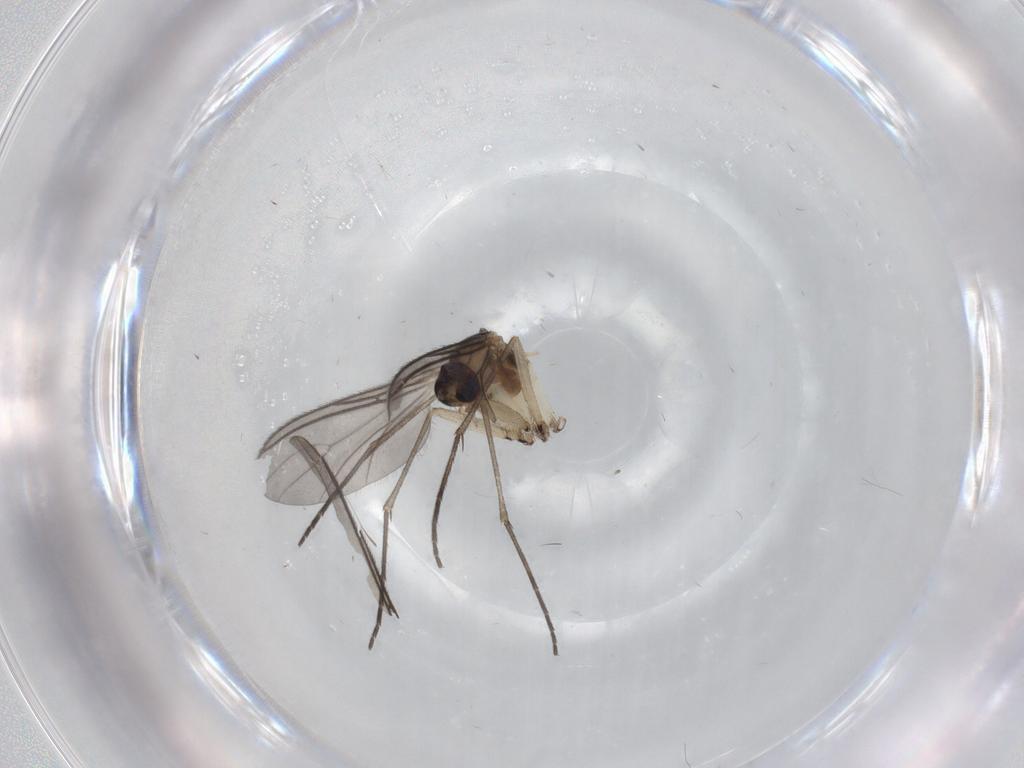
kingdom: Animalia
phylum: Arthropoda
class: Insecta
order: Diptera
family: Sciaridae
